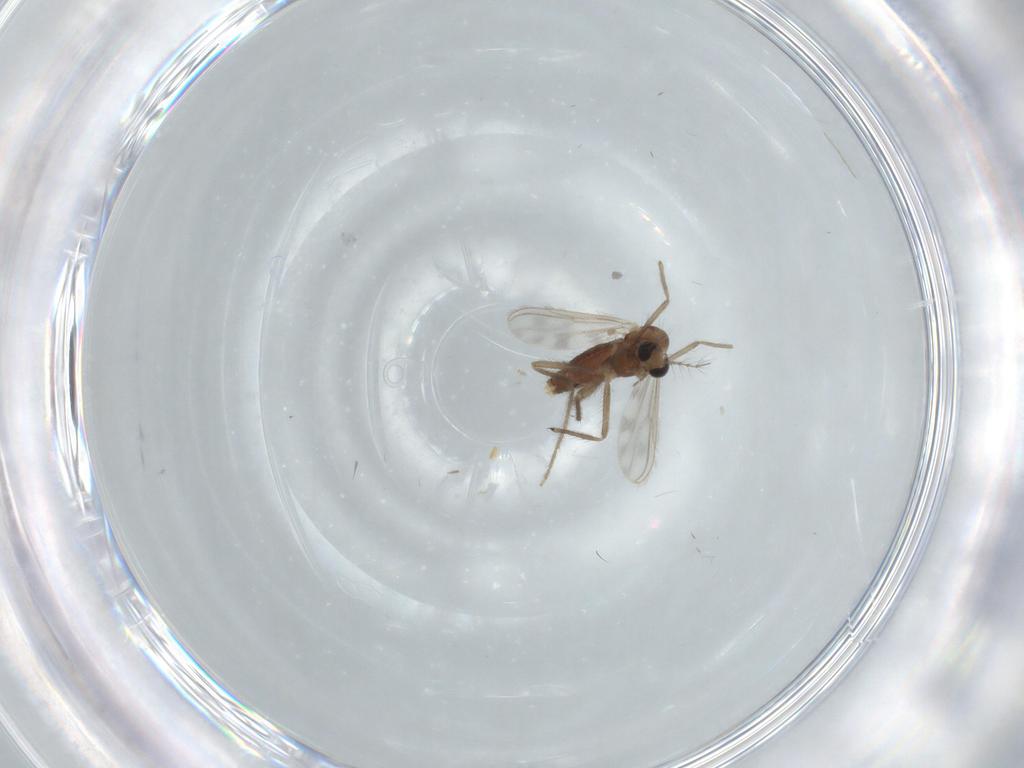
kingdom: Animalia
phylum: Arthropoda
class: Insecta
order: Diptera
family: Chironomidae
